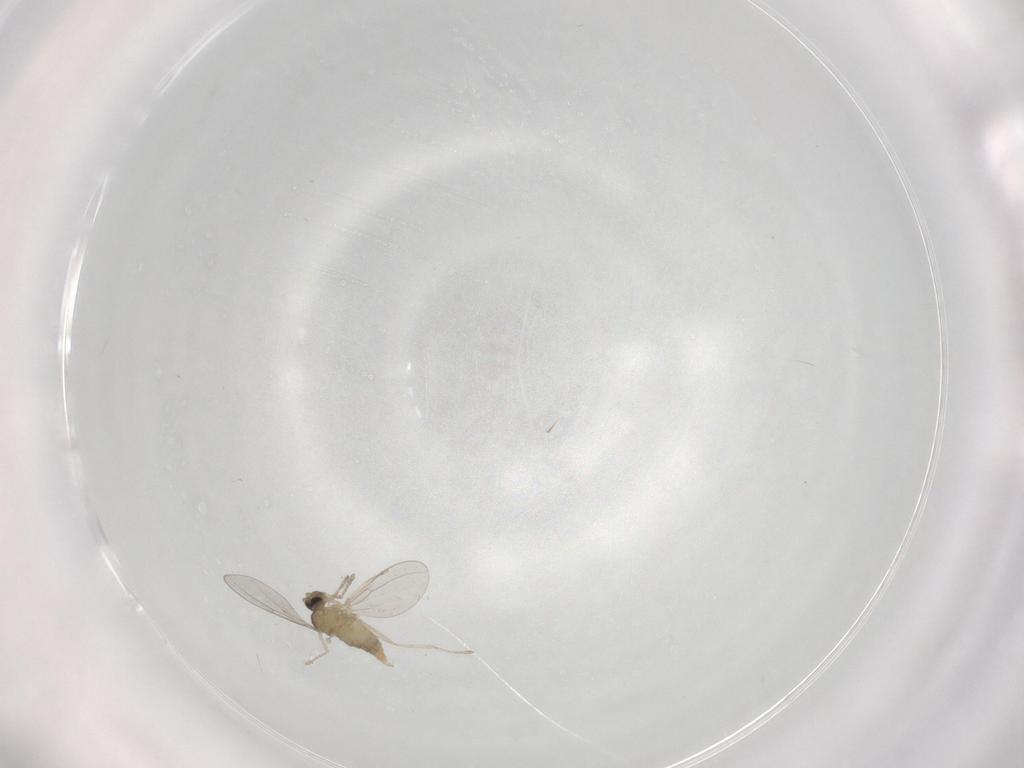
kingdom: Animalia
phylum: Arthropoda
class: Insecta
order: Diptera
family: Cecidomyiidae
